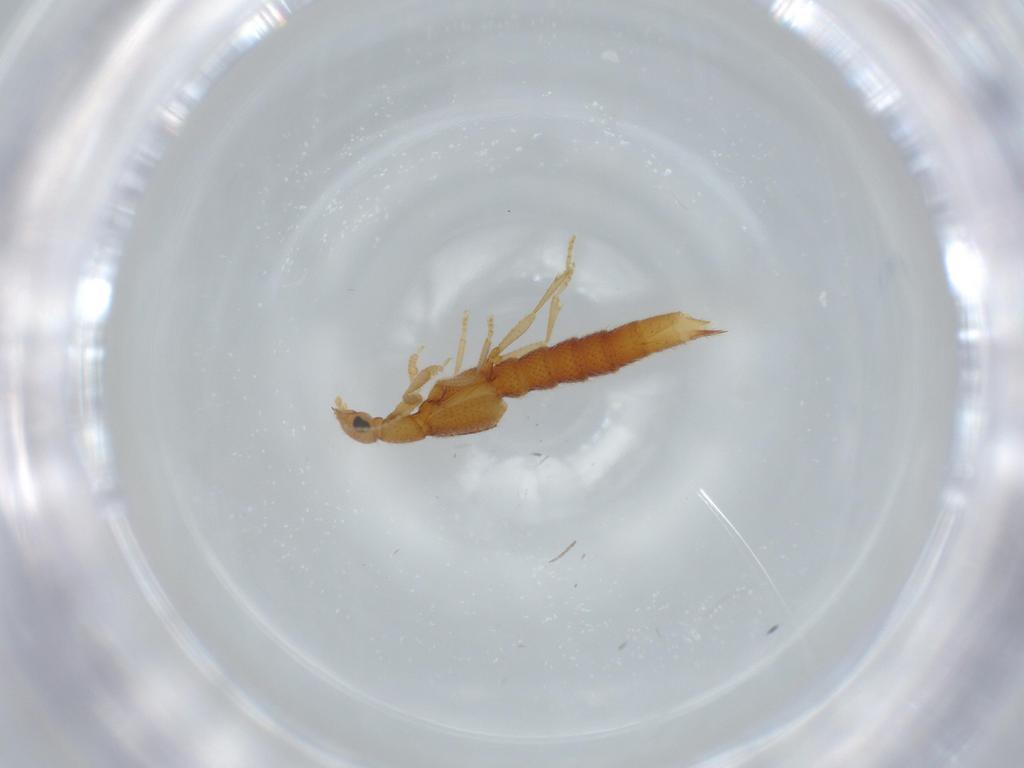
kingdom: Animalia
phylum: Arthropoda
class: Insecta
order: Coleoptera
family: Staphylinidae
